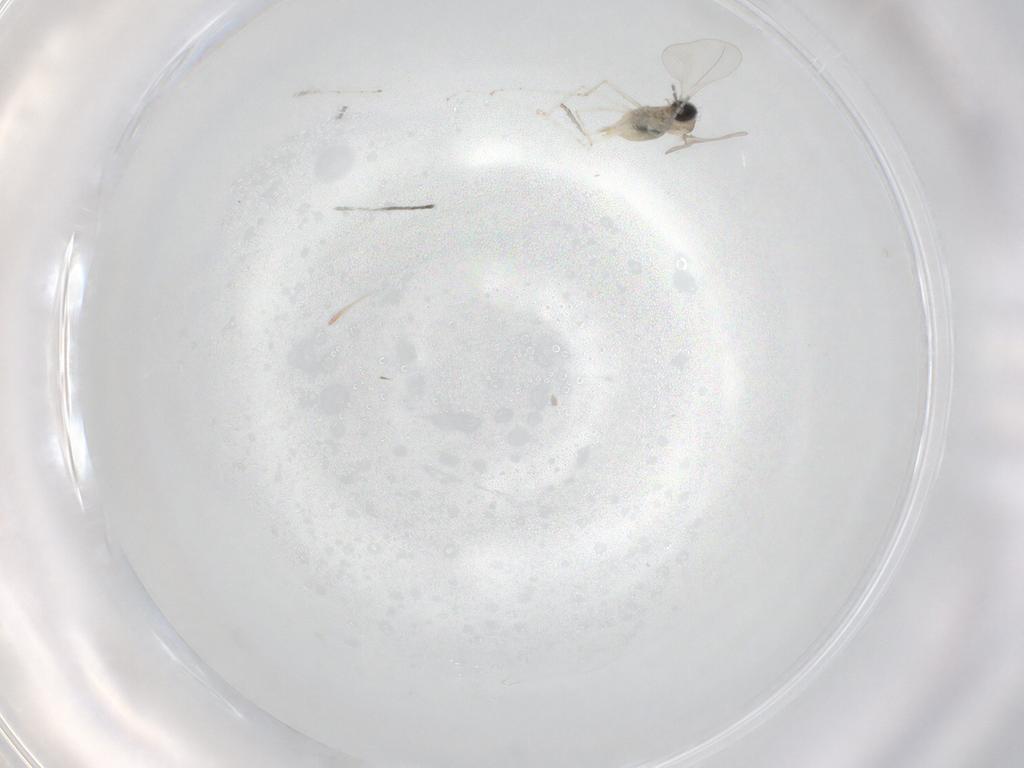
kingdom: Animalia
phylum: Arthropoda
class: Insecta
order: Diptera
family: Cecidomyiidae
